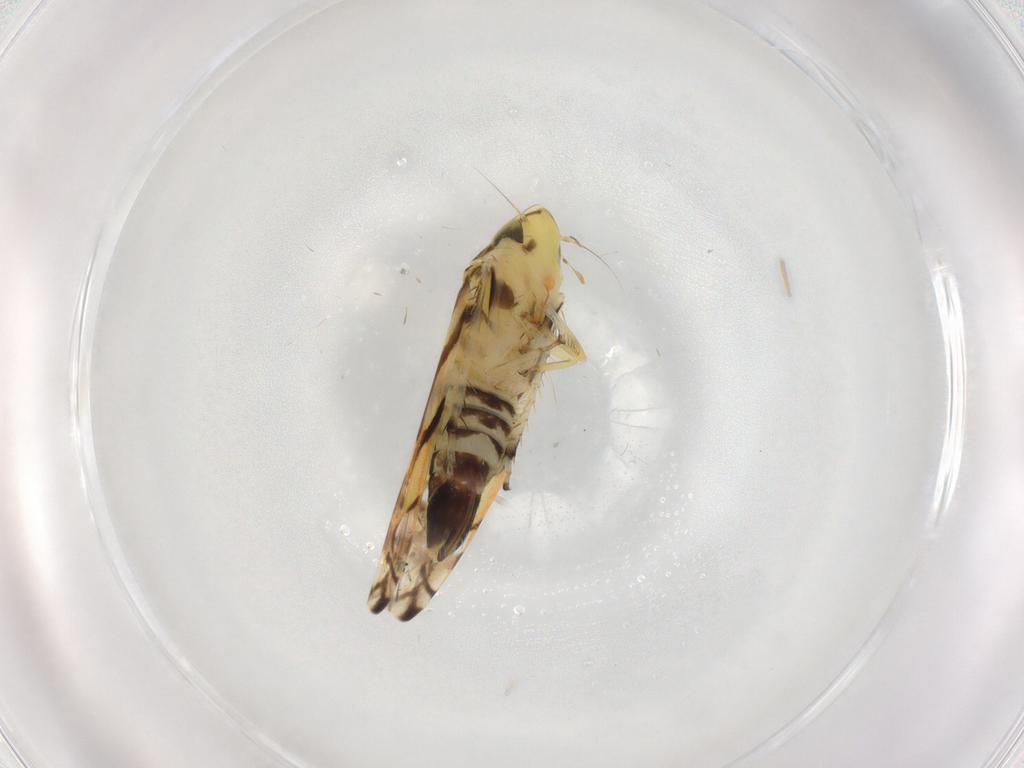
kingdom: Animalia
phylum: Arthropoda
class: Insecta
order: Hemiptera
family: Cicadellidae
